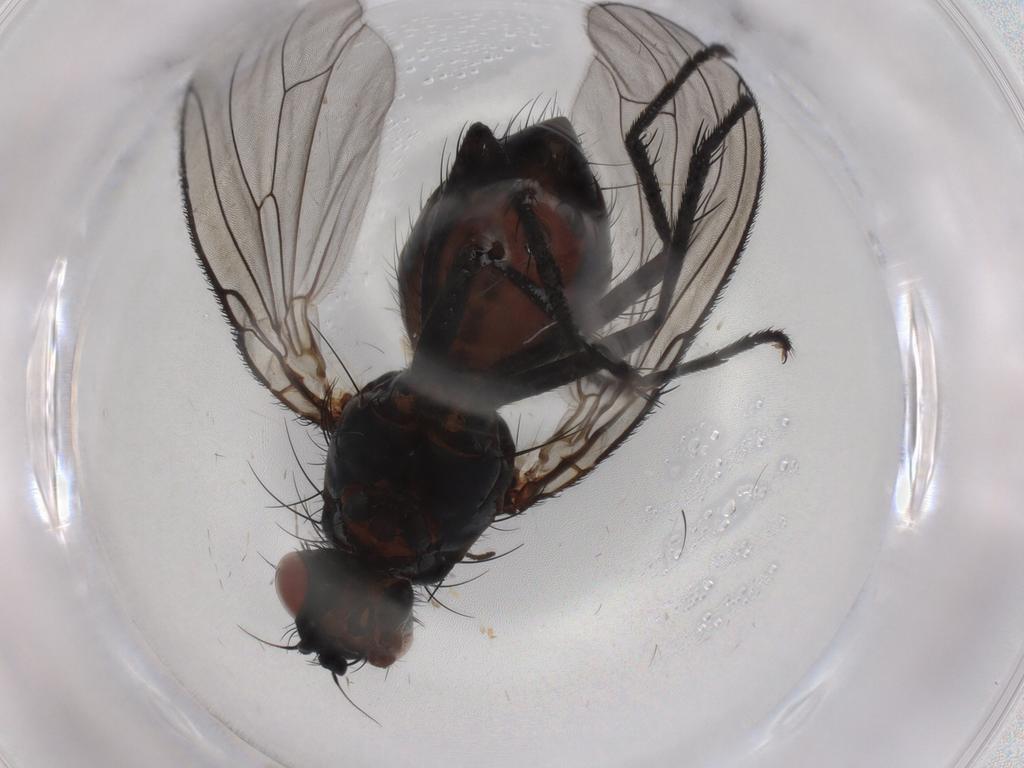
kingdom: Animalia
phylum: Arthropoda
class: Insecta
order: Diptera
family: Anthomyiidae
